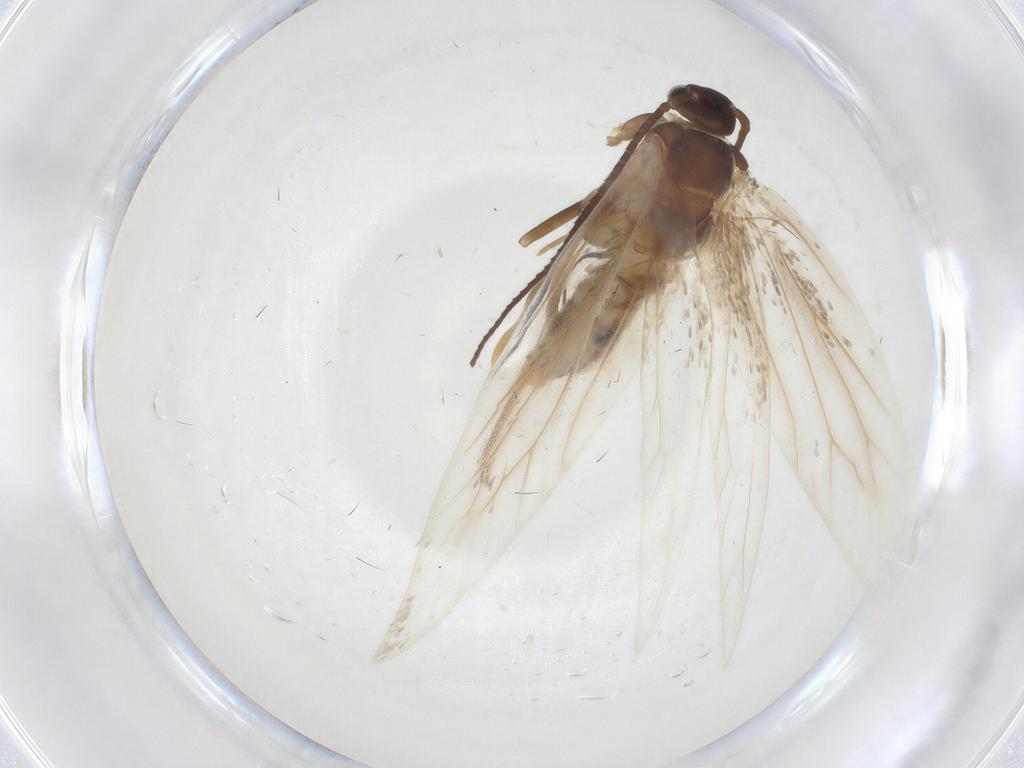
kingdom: Animalia
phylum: Arthropoda
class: Insecta
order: Lepidoptera
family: Elachistidae
